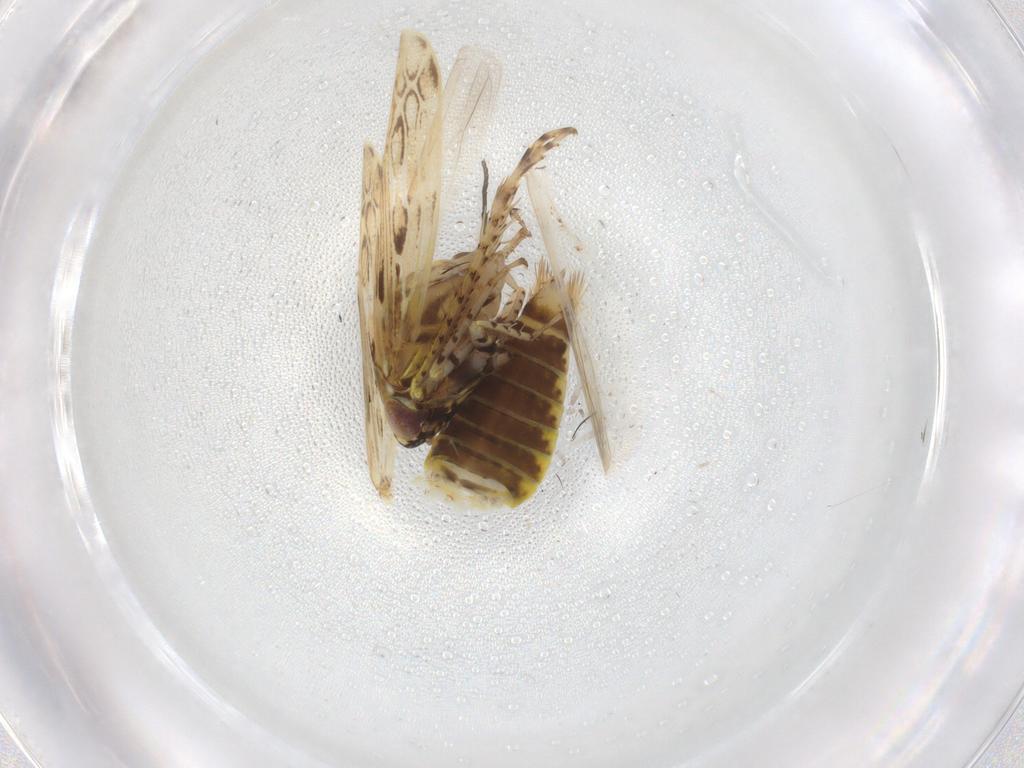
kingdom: Animalia
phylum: Arthropoda
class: Insecta
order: Hemiptera
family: Cicadellidae
